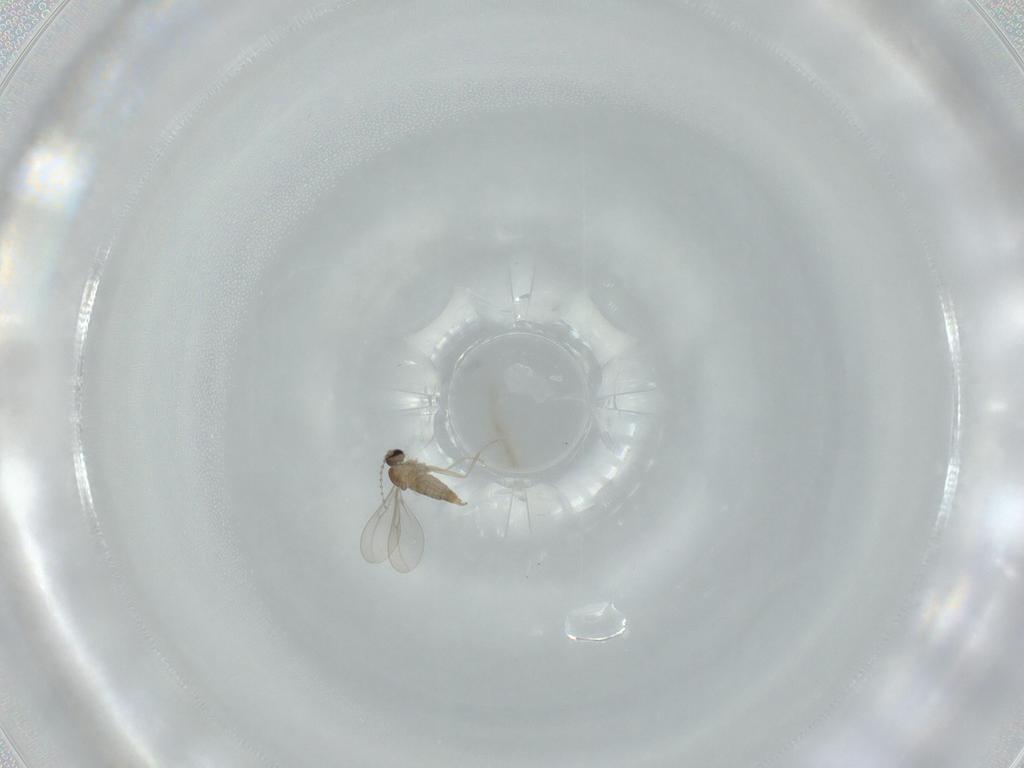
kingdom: Animalia
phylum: Arthropoda
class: Insecta
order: Diptera
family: Cecidomyiidae
